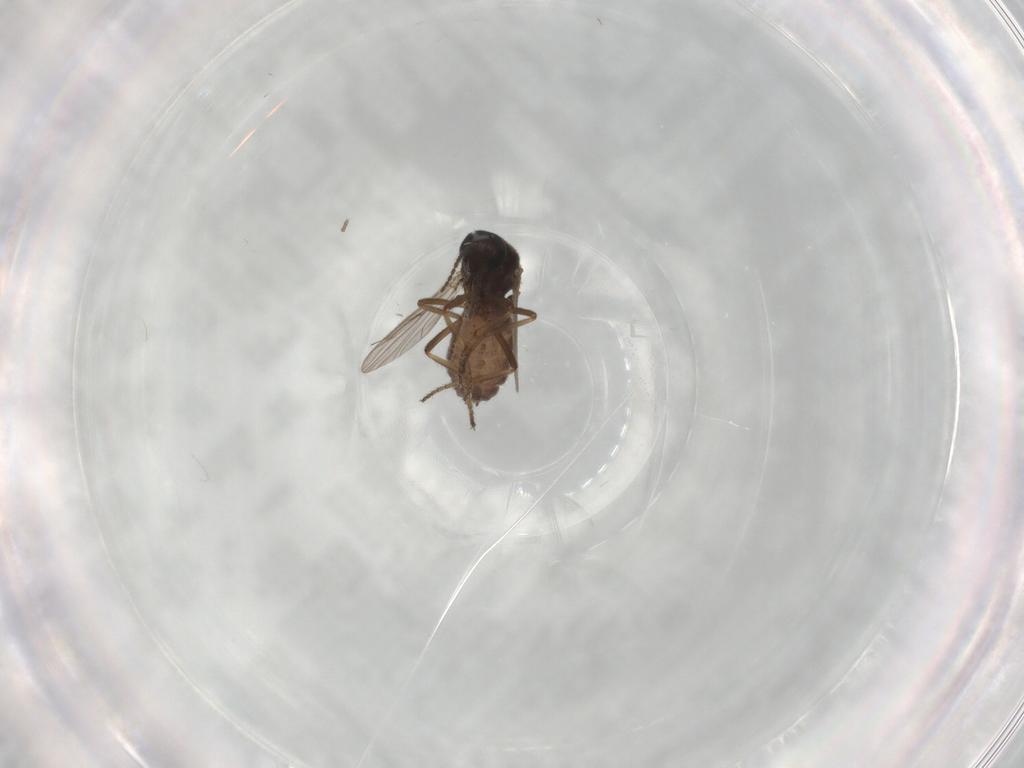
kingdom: Animalia
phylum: Arthropoda
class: Insecta
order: Diptera
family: Ceratopogonidae
